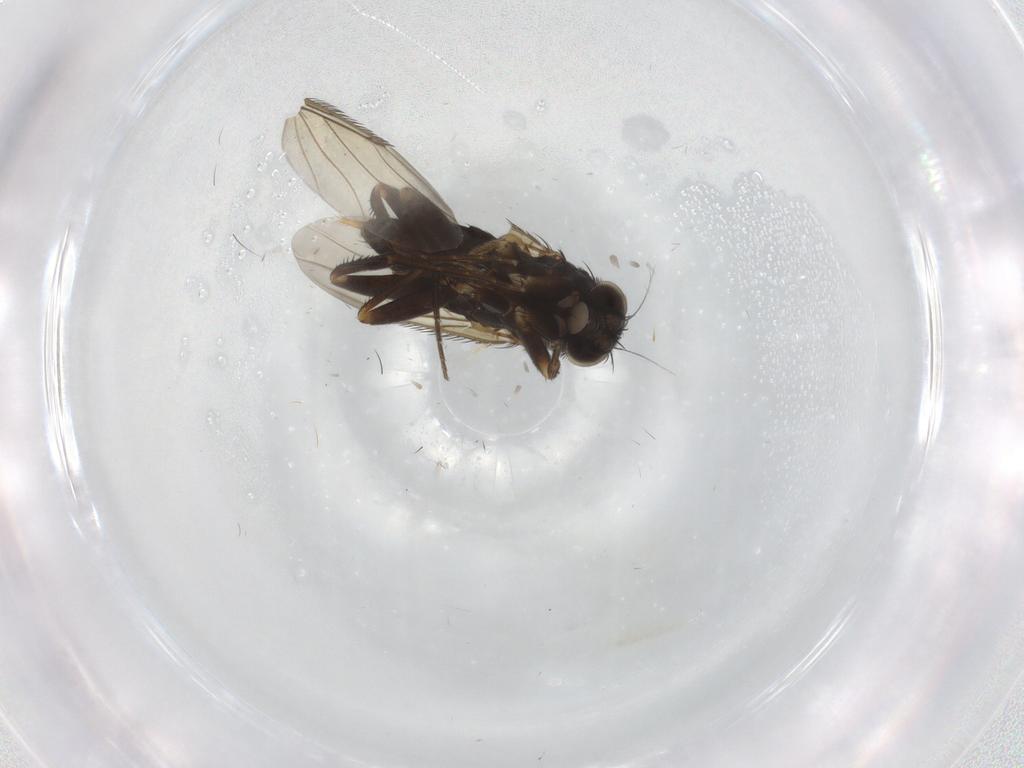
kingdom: Animalia
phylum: Arthropoda
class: Insecta
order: Diptera
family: Phoridae
